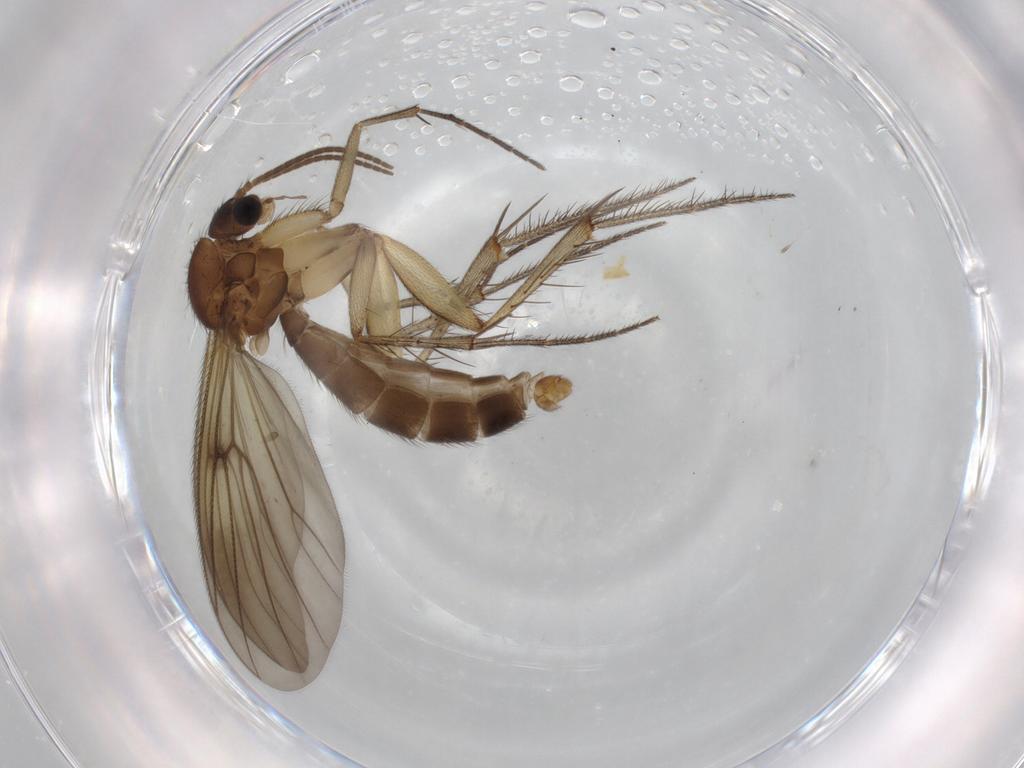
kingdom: Animalia
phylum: Arthropoda
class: Insecta
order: Diptera
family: Mycetophilidae
